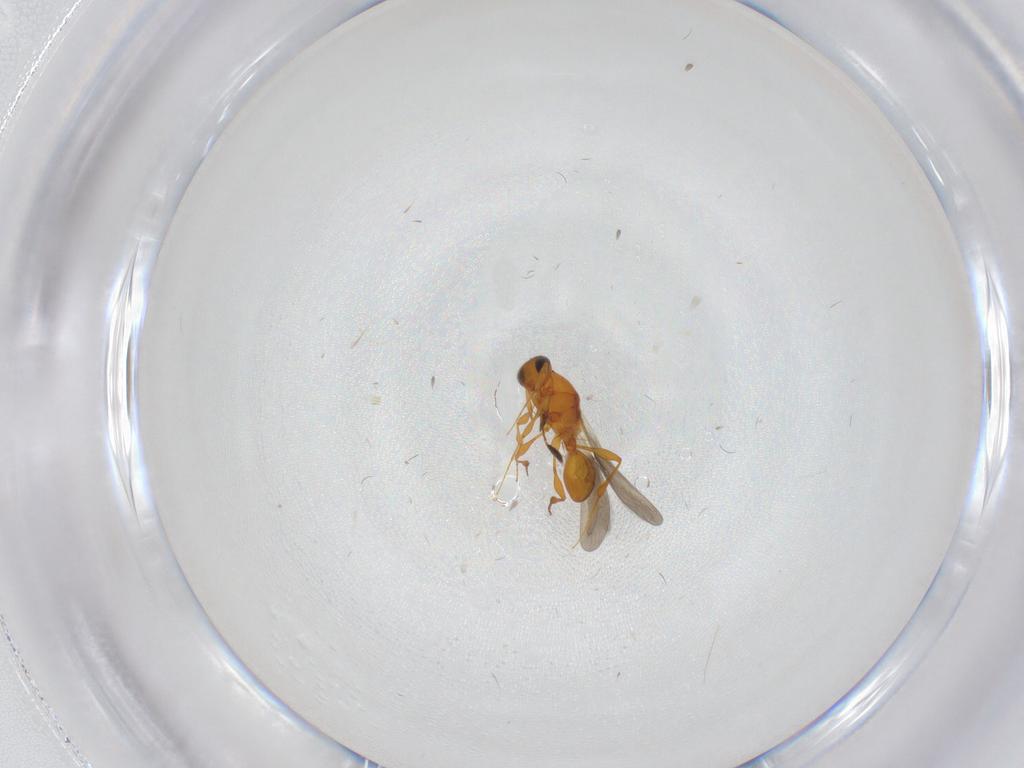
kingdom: Animalia
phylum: Arthropoda
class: Insecta
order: Hymenoptera
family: Platygastridae
